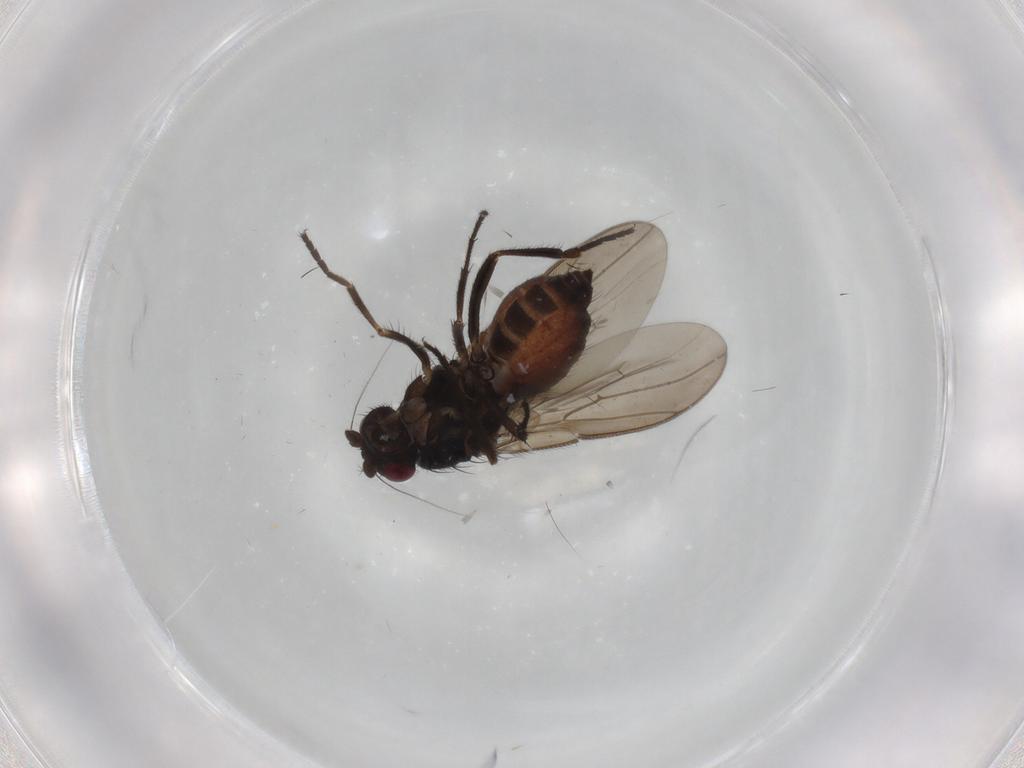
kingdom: Animalia
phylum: Arthropoda
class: Insecta
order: Diptera
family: Sphaeroceridae
